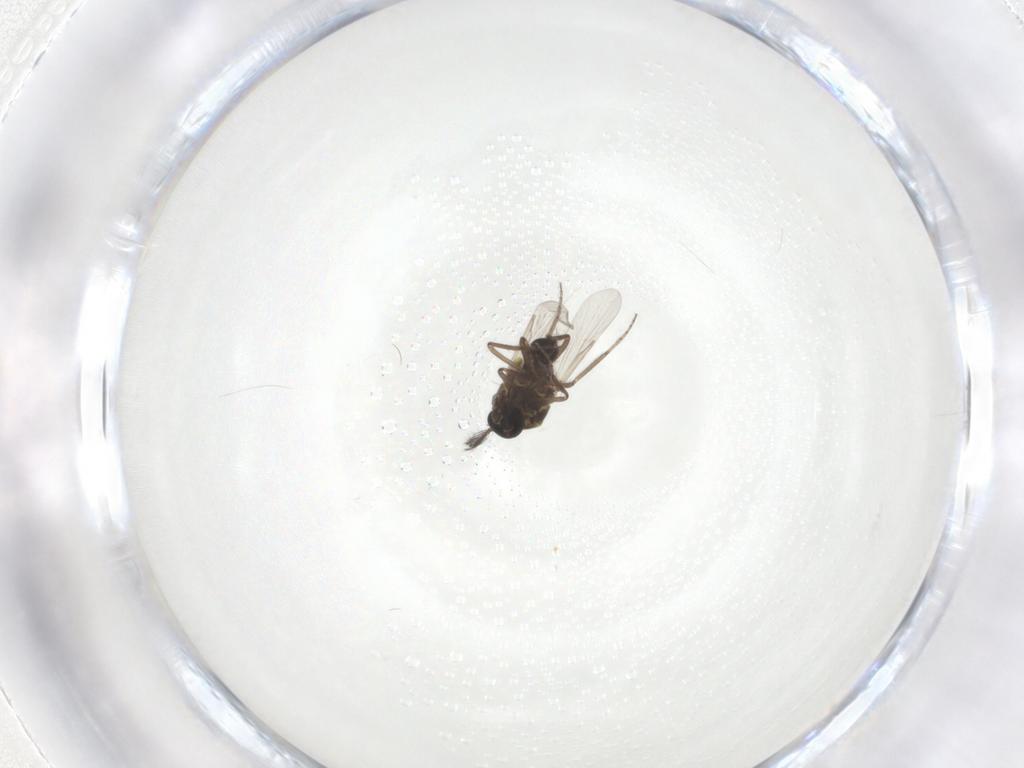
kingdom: Animalia
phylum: Arthropoda
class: Insecta
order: Diptera
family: Ceratopogonidae
